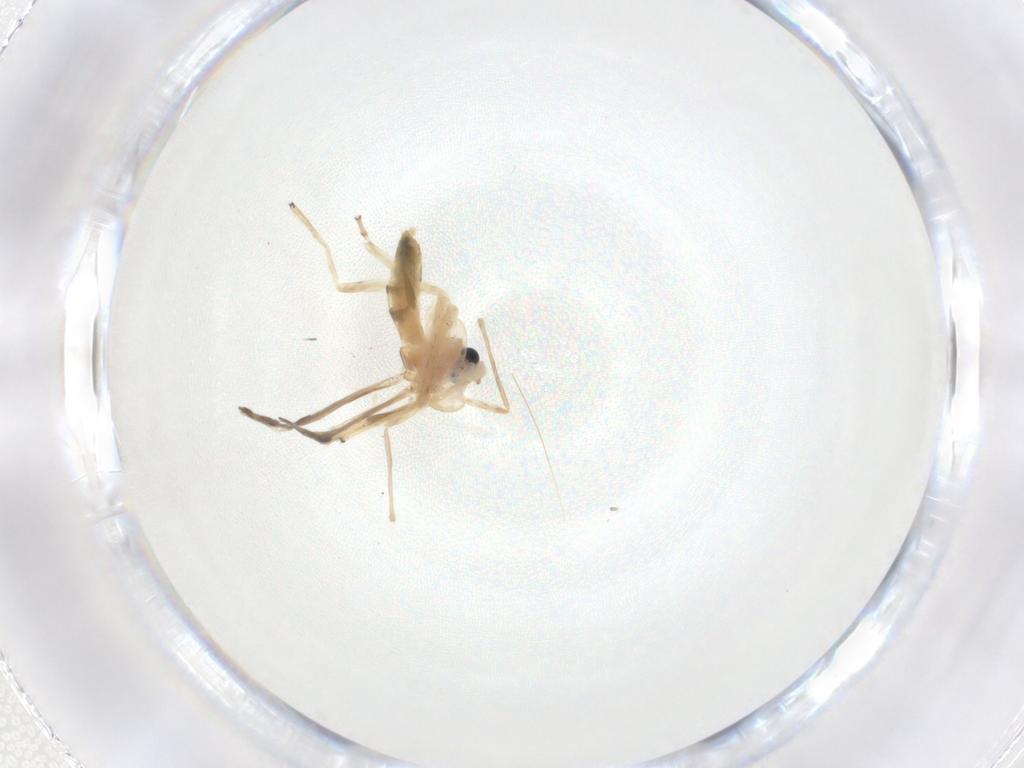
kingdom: Animalia
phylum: Arthropoda
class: Insecta
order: Diptera
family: Chironomidae
